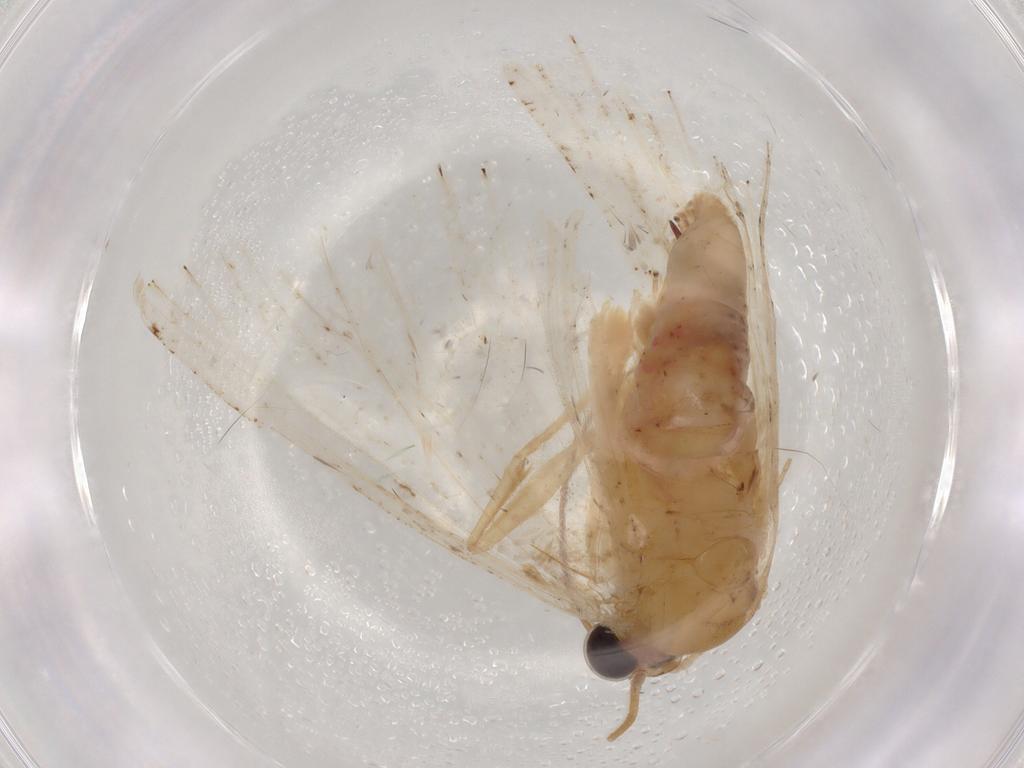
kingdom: Animalia
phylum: Arthropoda
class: Insecta
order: Lepidoptera
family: Geometridae
